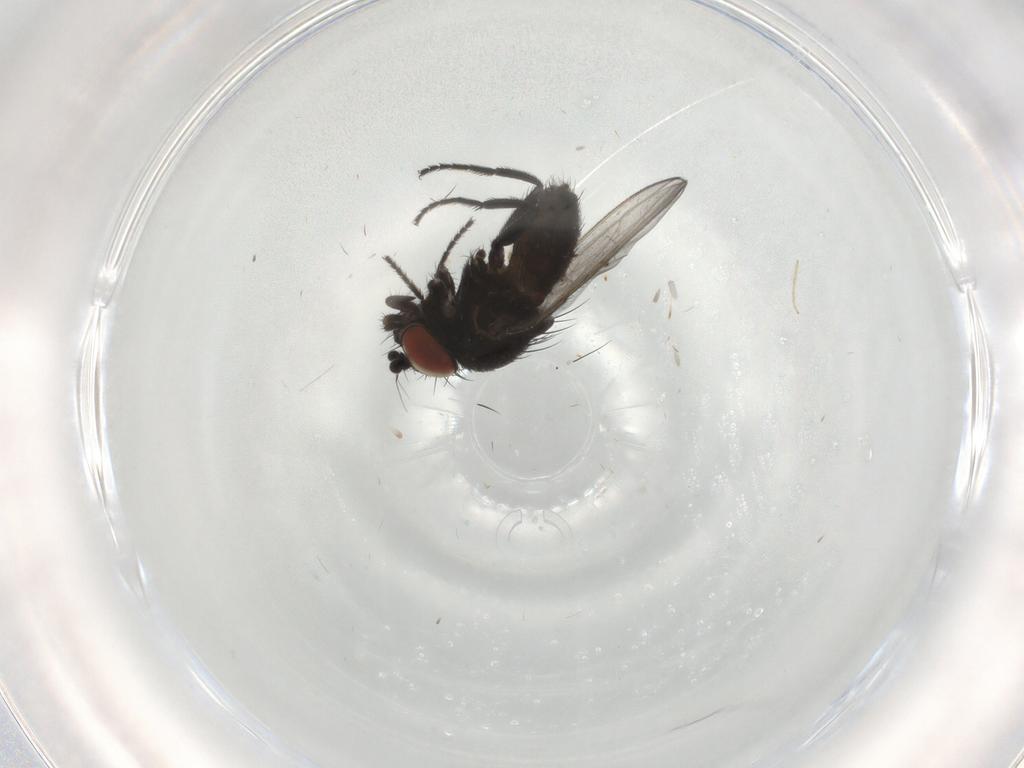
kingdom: Animalia
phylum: Arthropoda
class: Insecta
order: Diptera
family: Milichiidae
